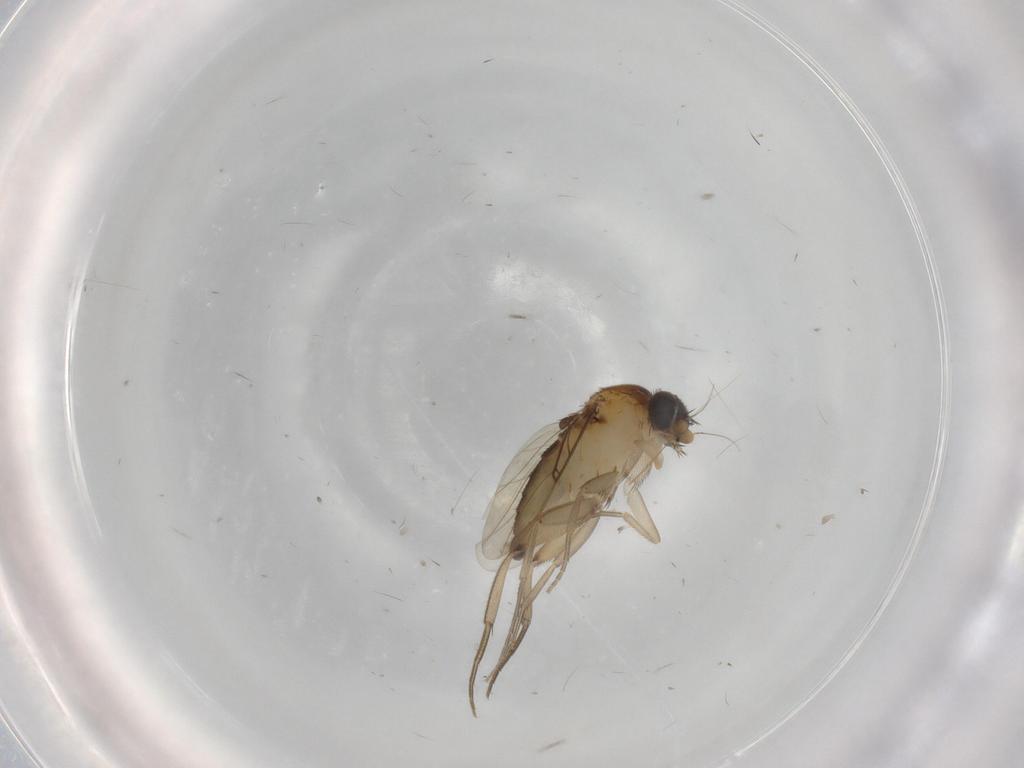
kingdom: Animalia
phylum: Arthropoda
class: Insecta
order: Diptera
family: Phoridae
